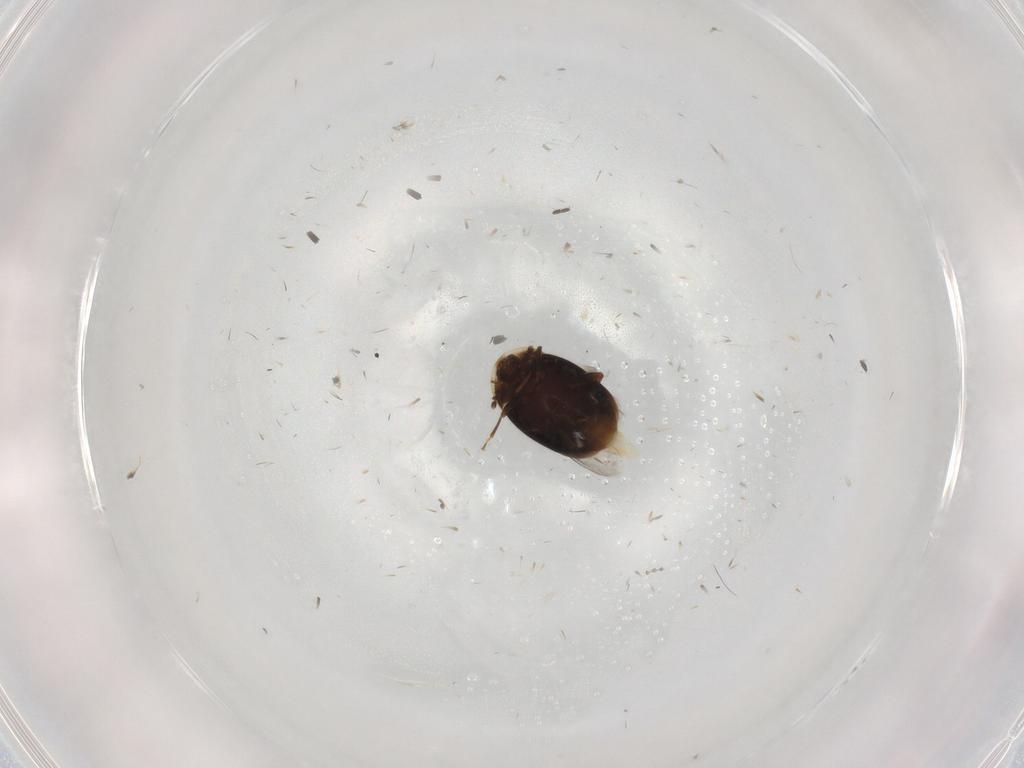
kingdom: Animalia
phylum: Arthropoda
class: Insecta
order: Coleoptera
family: Corylophidae
